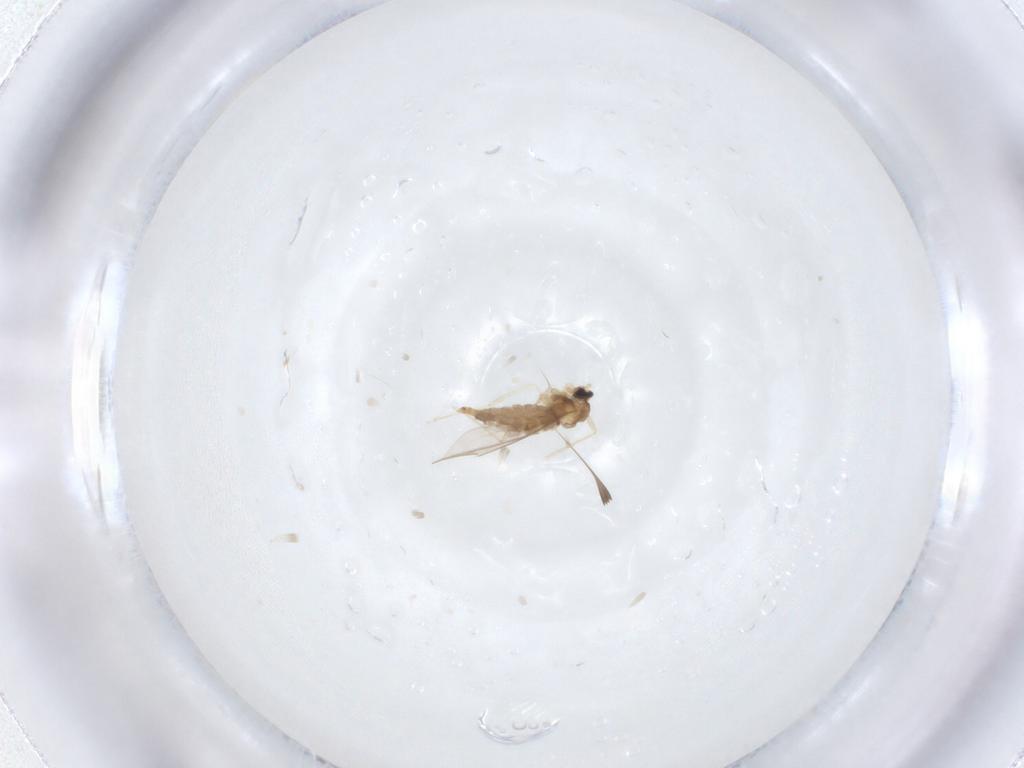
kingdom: Animalia
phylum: Arthropoda
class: Insecta
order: Diptera
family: Cecidomyiidae
